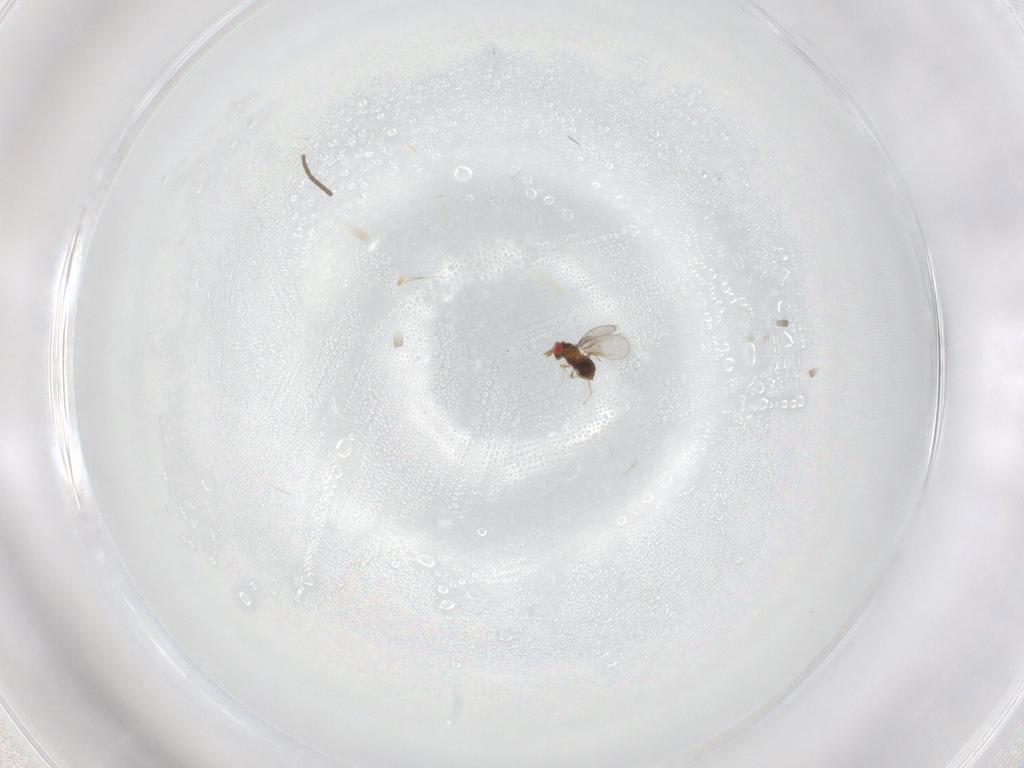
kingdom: Animalia
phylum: Arthropoda
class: Insecta
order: Hymenoptera
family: Trichogrammatidae
